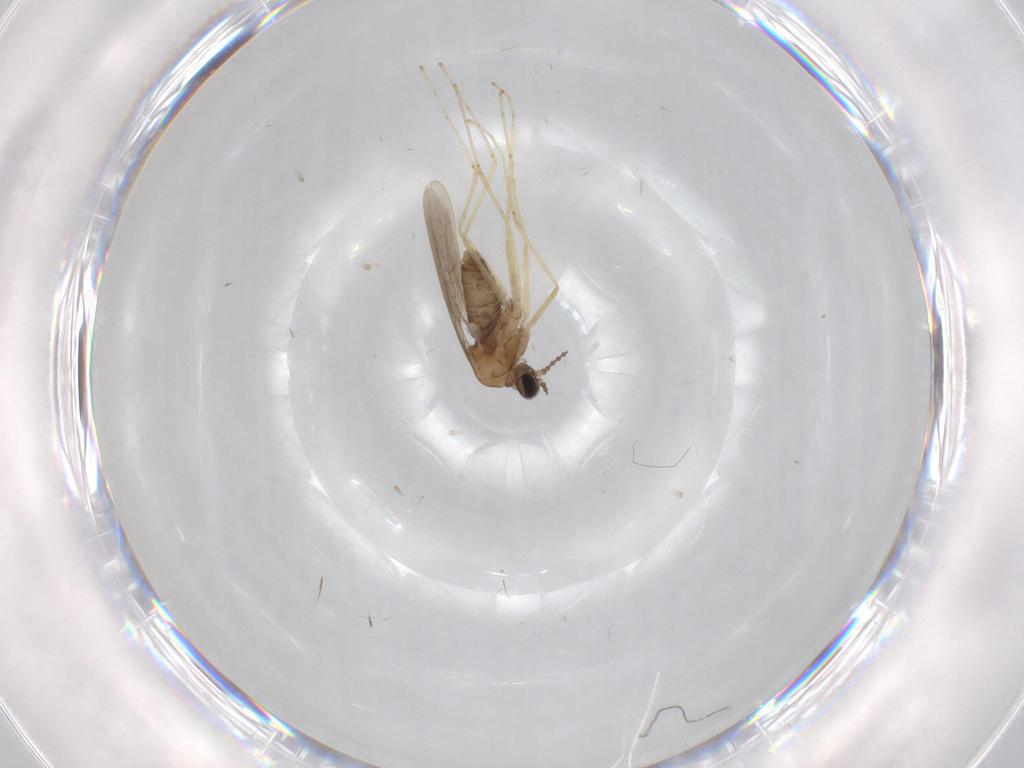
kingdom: Animalia
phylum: Arthropoda
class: Insecta
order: Diptera
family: Cecidomyiidae
